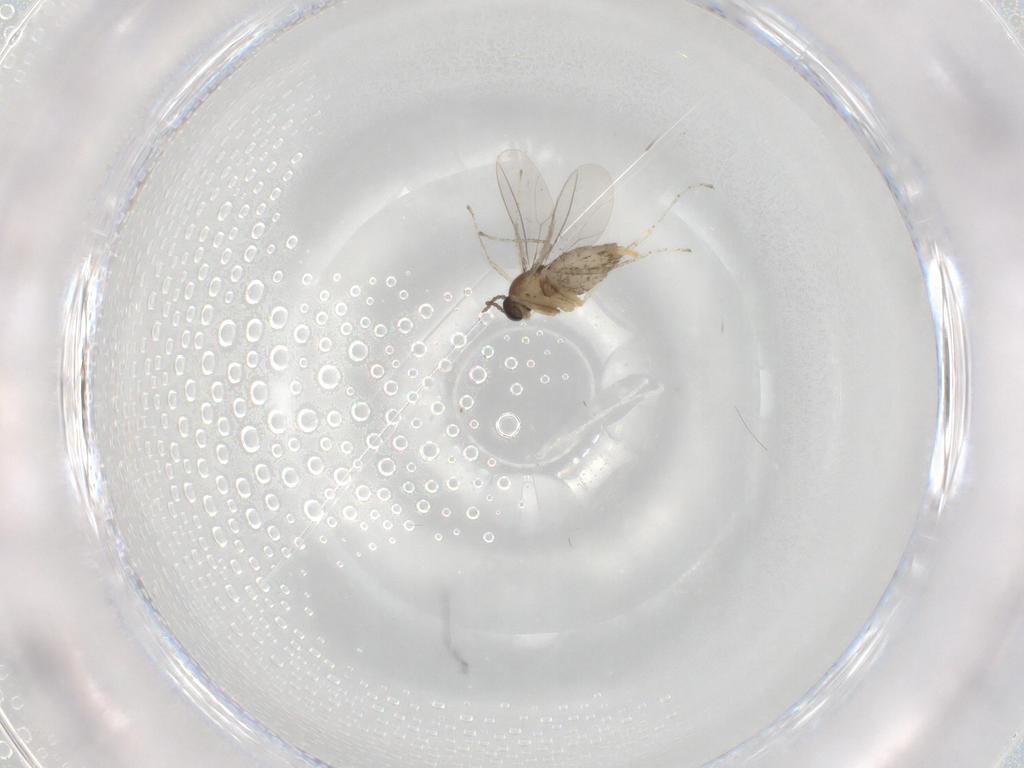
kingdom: Animalia
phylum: Arthropoda
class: Insecta
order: Diptera
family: Cecidomyiidae
